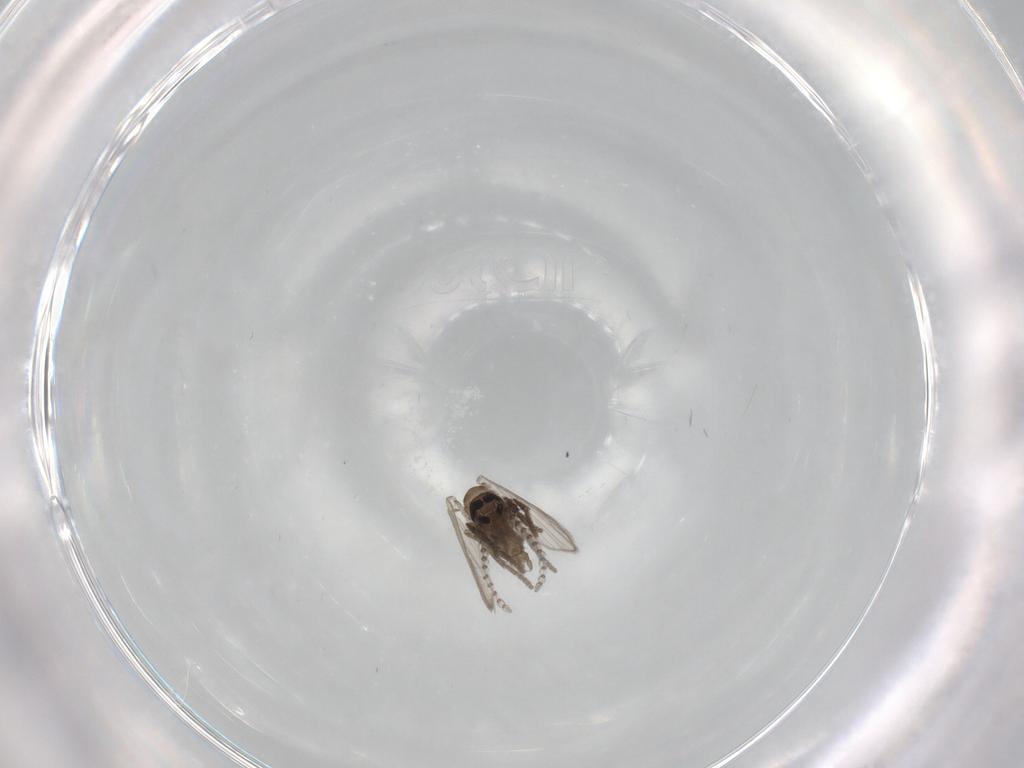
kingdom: Animalia
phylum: Arthropoda
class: Insecta
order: Diptera
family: Psychodidae
